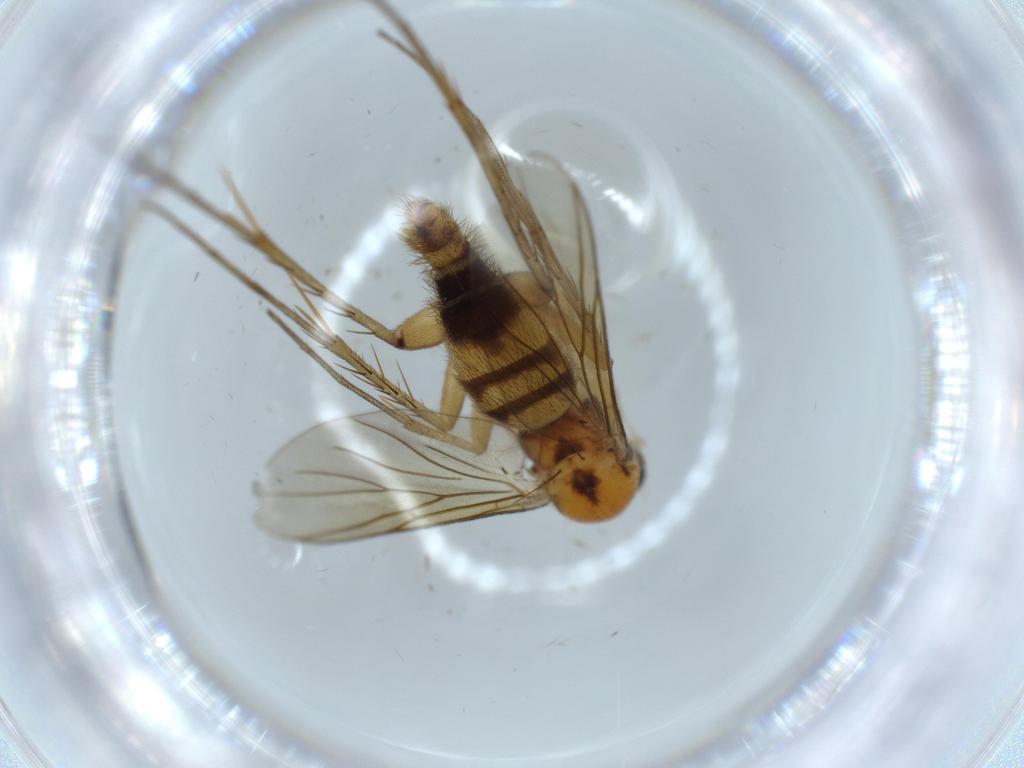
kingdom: Animalia
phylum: Arthropoda
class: Insecta
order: Diptera
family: Mycetophilidae
